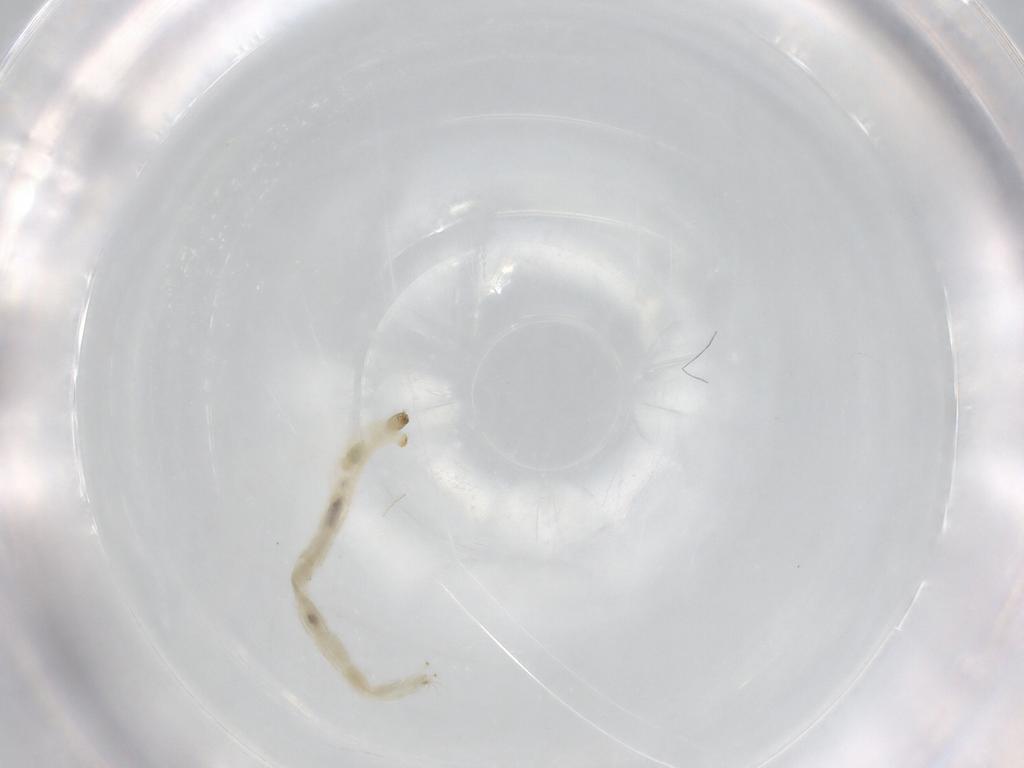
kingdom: Animalia
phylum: Arthropoda
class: Insecta
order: Diptera
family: Chironomidae
